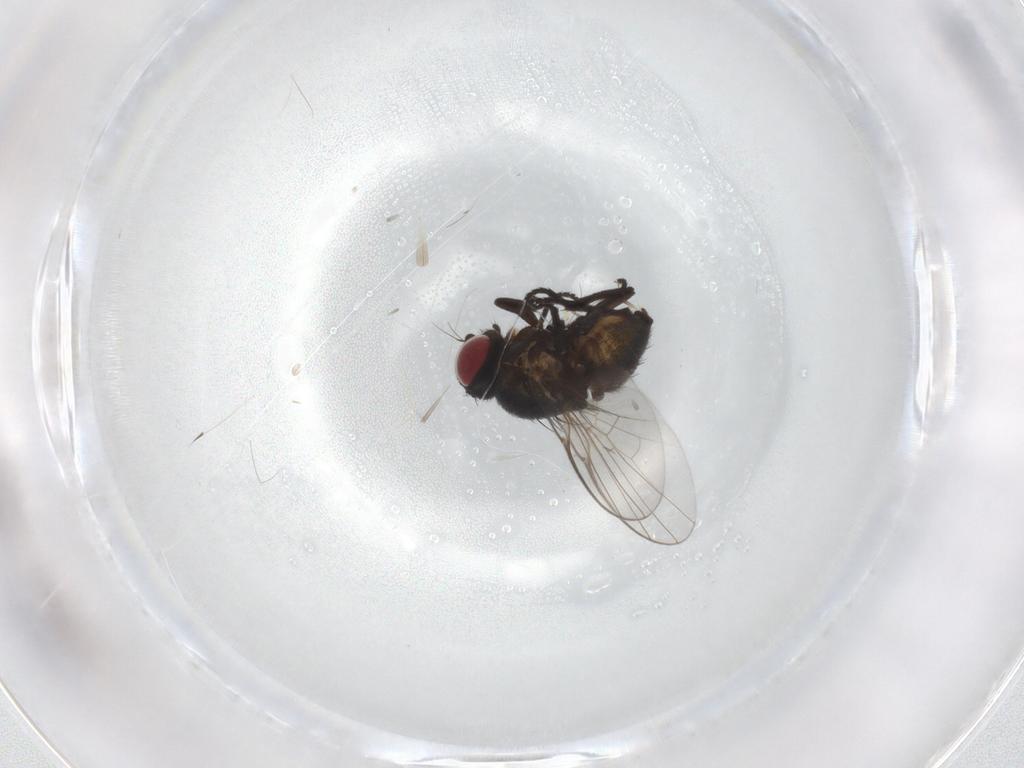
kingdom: Animalia
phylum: Arthropoda
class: Insecta
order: Diptera
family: Agromyzidae
